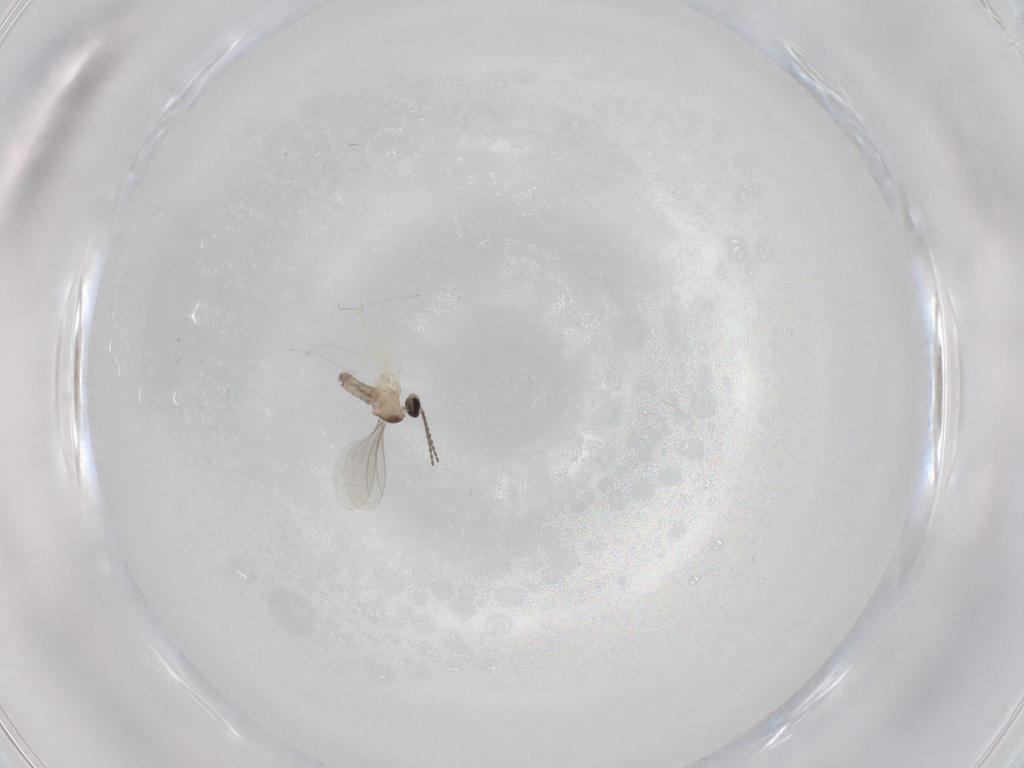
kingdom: Animalia
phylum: Arthropoda
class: Insecta
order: Diptera
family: Cecidomyiidae
